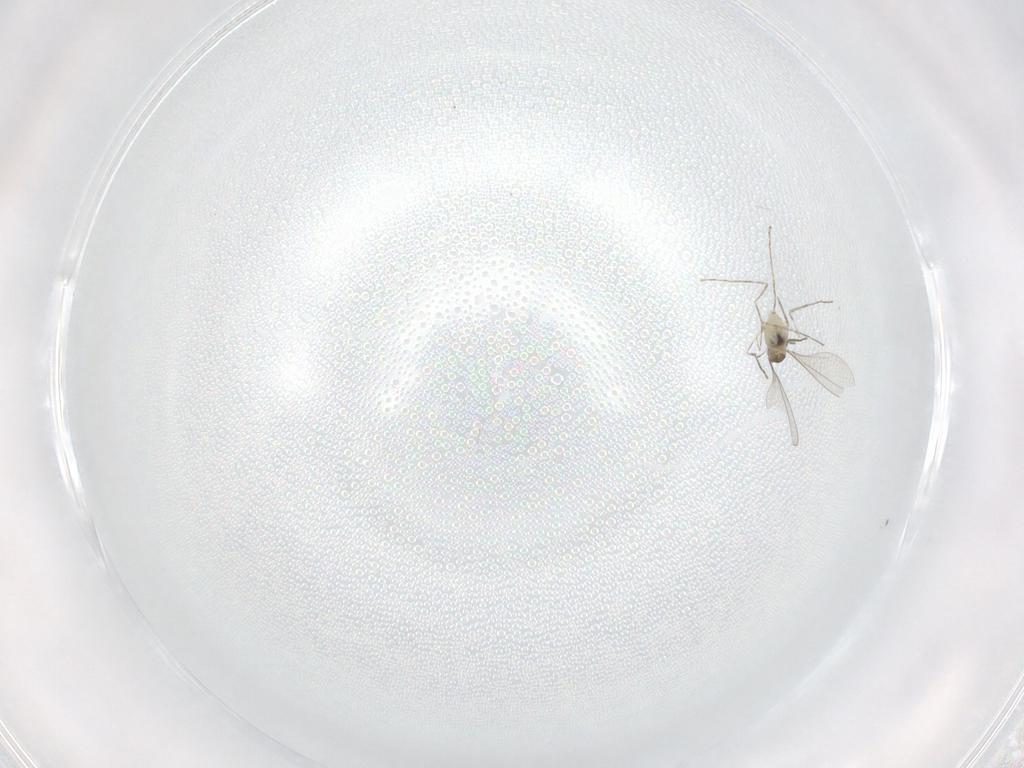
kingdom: Animalia
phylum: Arthropoda
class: Insecta
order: Diptera
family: Cecidomyiidae
